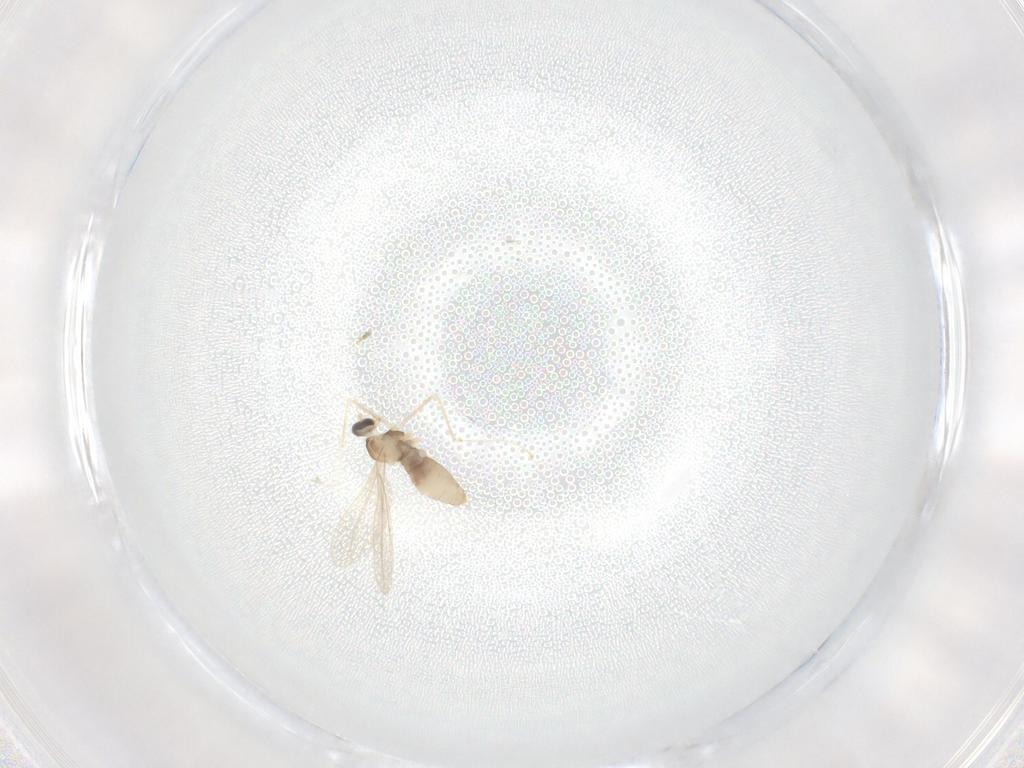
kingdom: Animalia
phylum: Arthropoda
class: Insecta
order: Diptera
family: Cecidomyiidae
